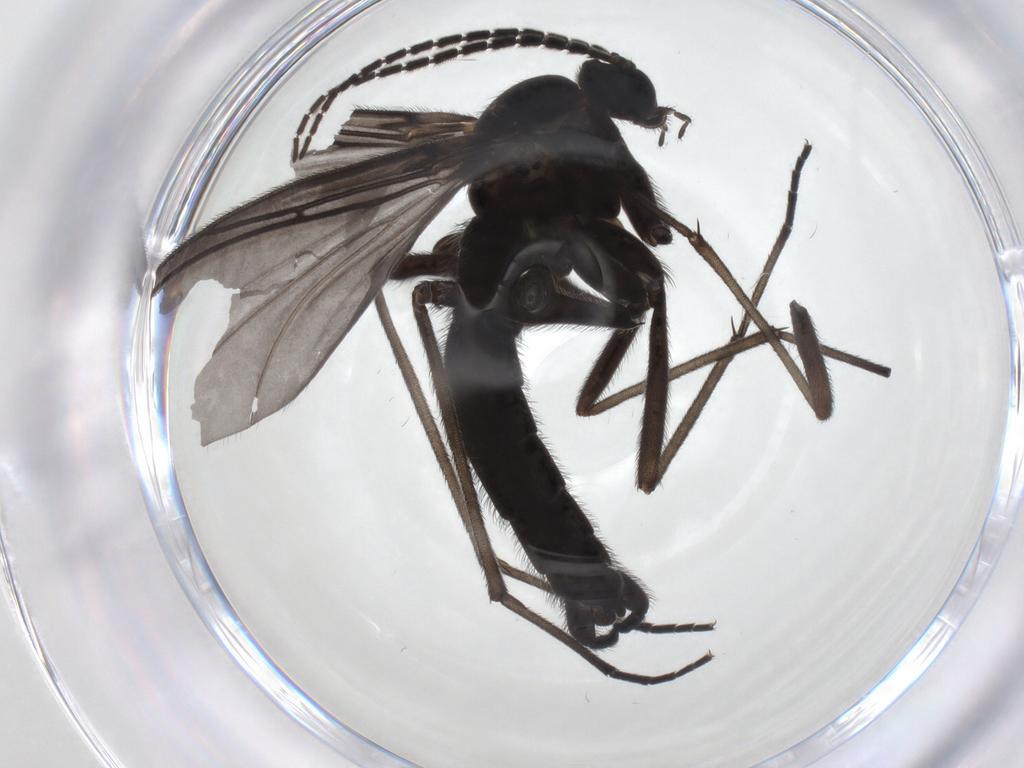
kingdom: Animalia
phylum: Arthropoda
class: Insecta
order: Diptera
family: Sciaridae
